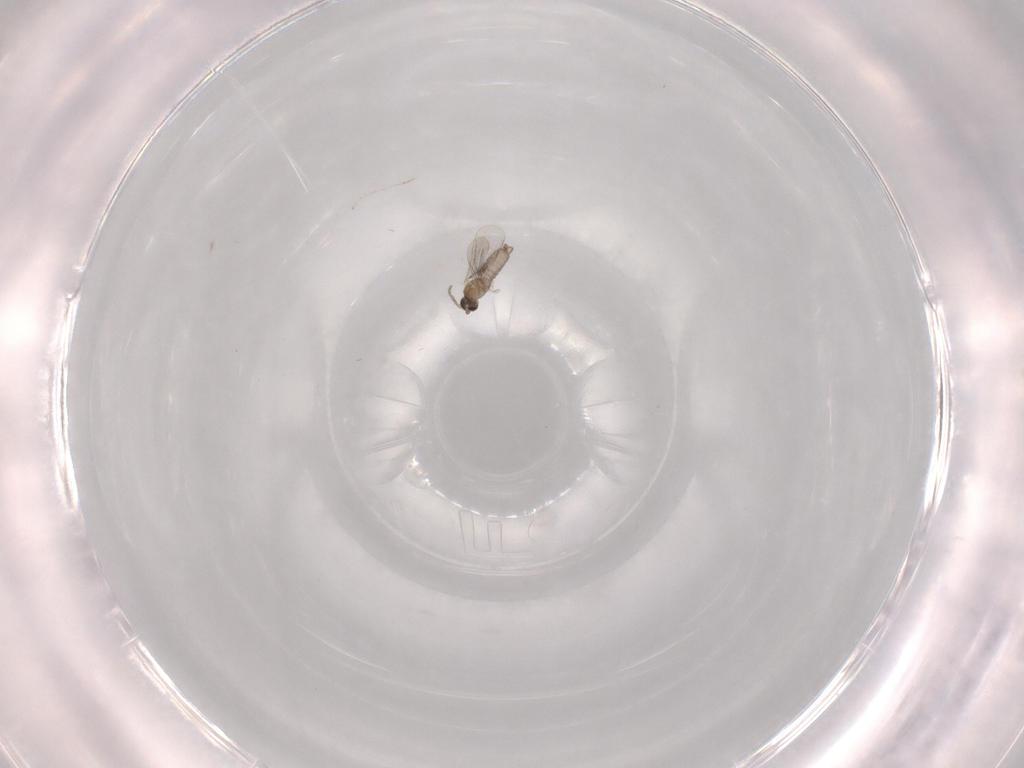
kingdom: Animalia
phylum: Arthropoda
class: Insecta
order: Diptera
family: Cecidomyiidae
